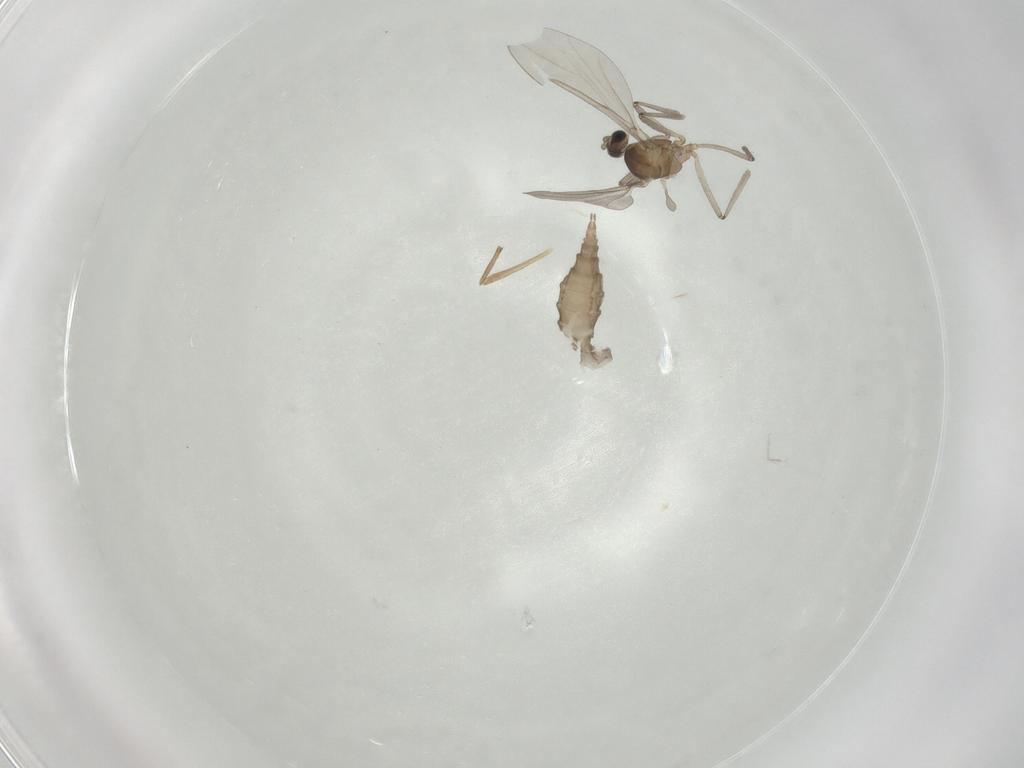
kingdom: Animalia
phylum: Arthropoda
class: Insecta
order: Diptera
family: Cecidomyiidae
